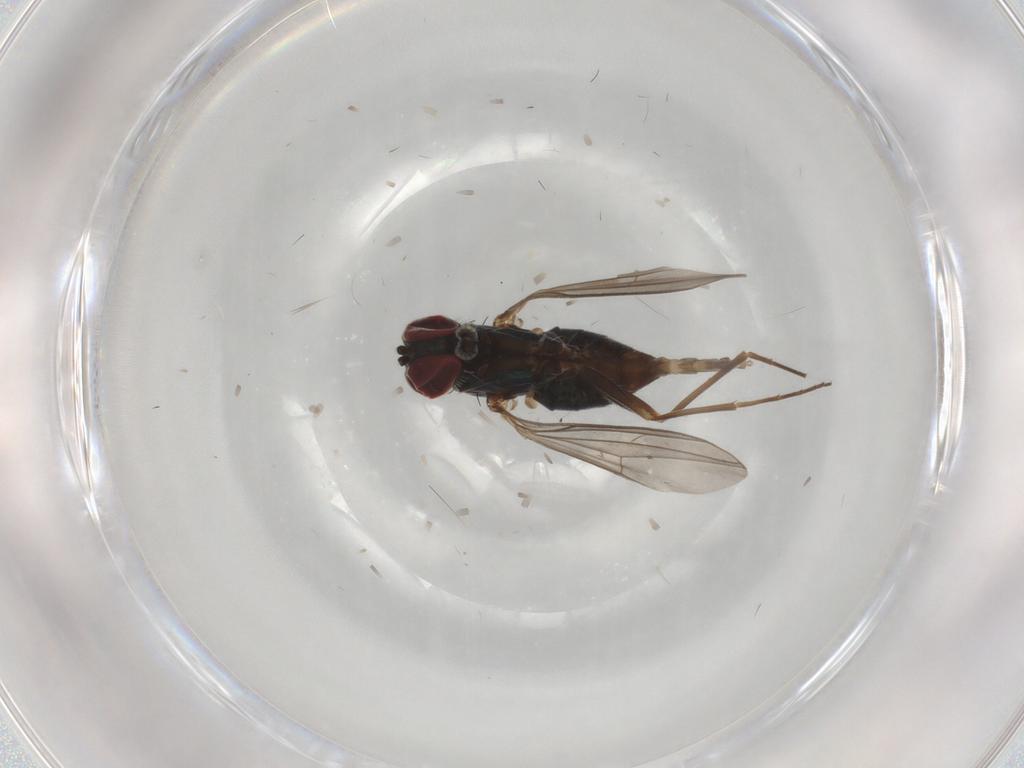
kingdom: Animalia
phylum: Arthropoda
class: Insecta
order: Diptera
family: Dolichopodidae
